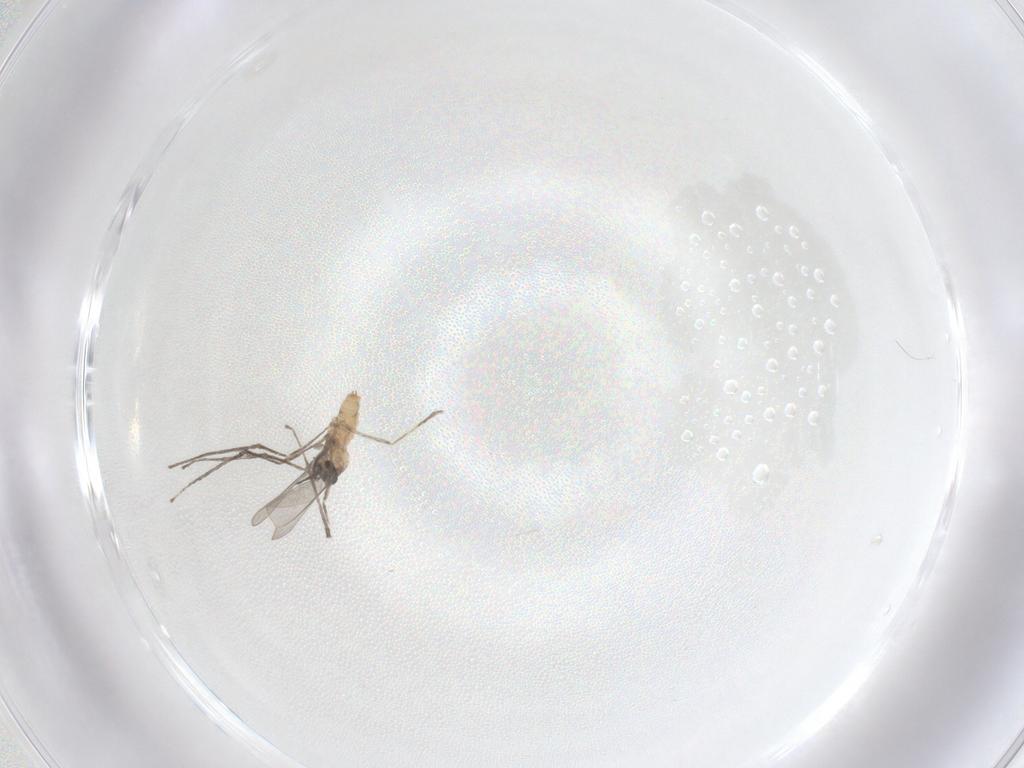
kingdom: Animalia
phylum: Arthropoda
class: Insecta
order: Diptera
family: Cecidomyiidae
